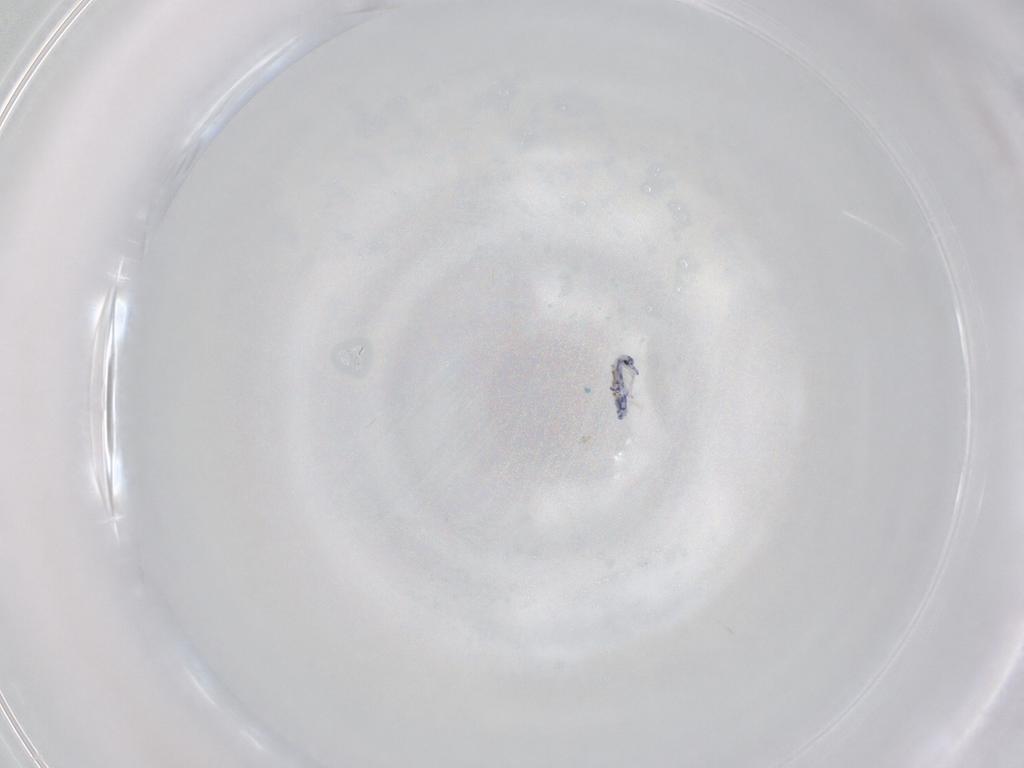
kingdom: Animalia
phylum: Arthropoda
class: Collembola
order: Entomobryomorpha
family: Entomobryidae
